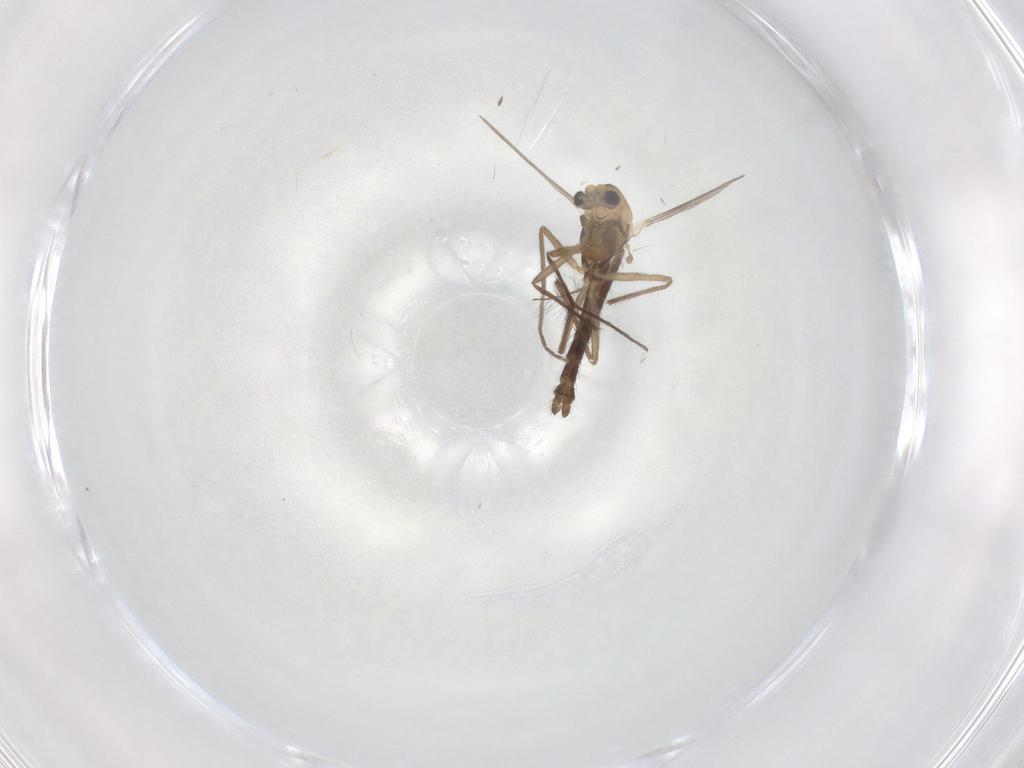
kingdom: Animalia
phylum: Arthropoda
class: Insecta
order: Diptera
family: Chironomidae
